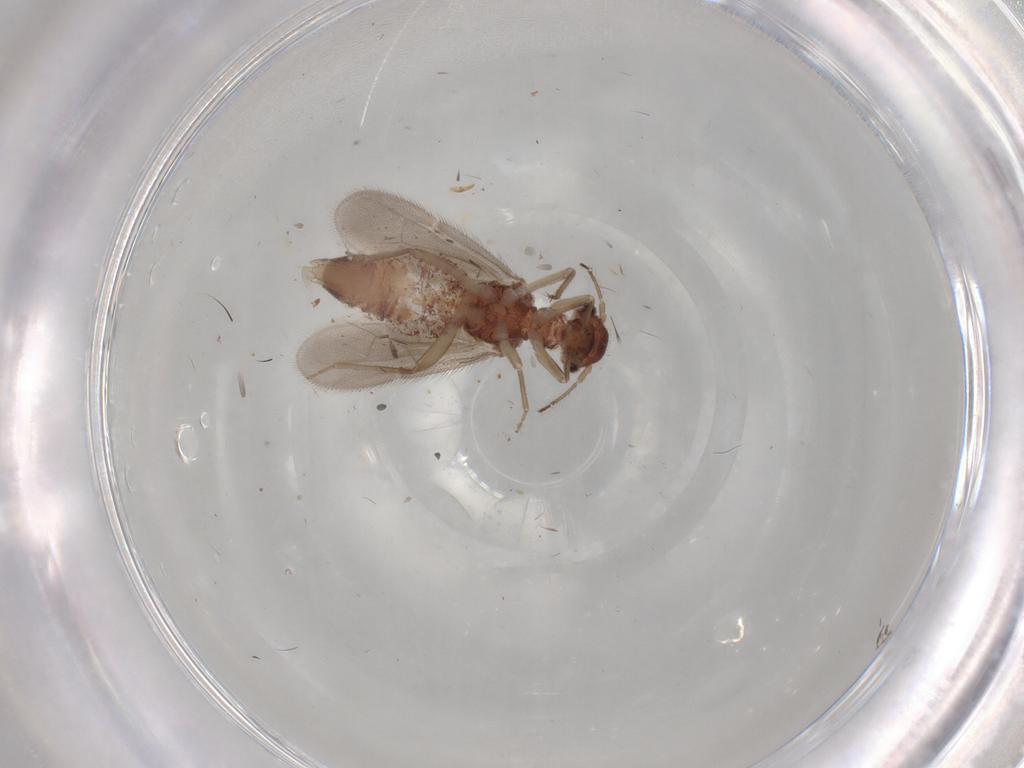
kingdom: Animalia
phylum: Arthropoda
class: Insecta
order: Psocodea
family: Archipsocidae
